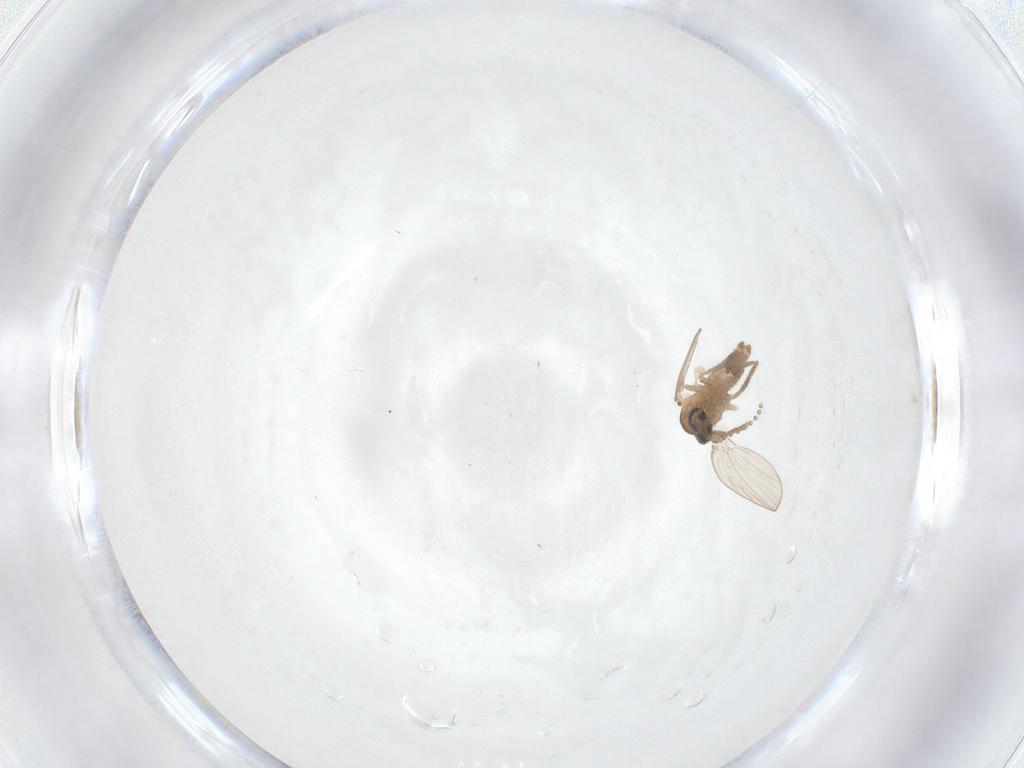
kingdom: Animalia
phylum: Arthropoda
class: Insecta
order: Diptera
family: Psychodidae
